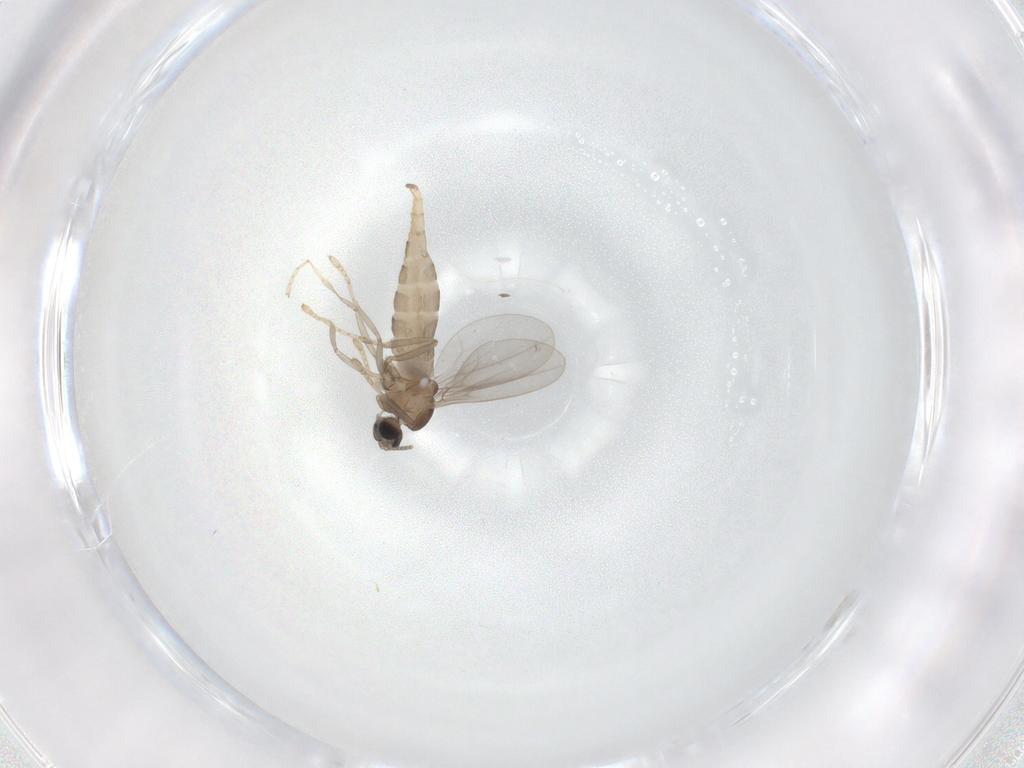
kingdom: Animalia
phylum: Arthropoda
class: Insecta
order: Diptera
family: Cecidomyiidae
